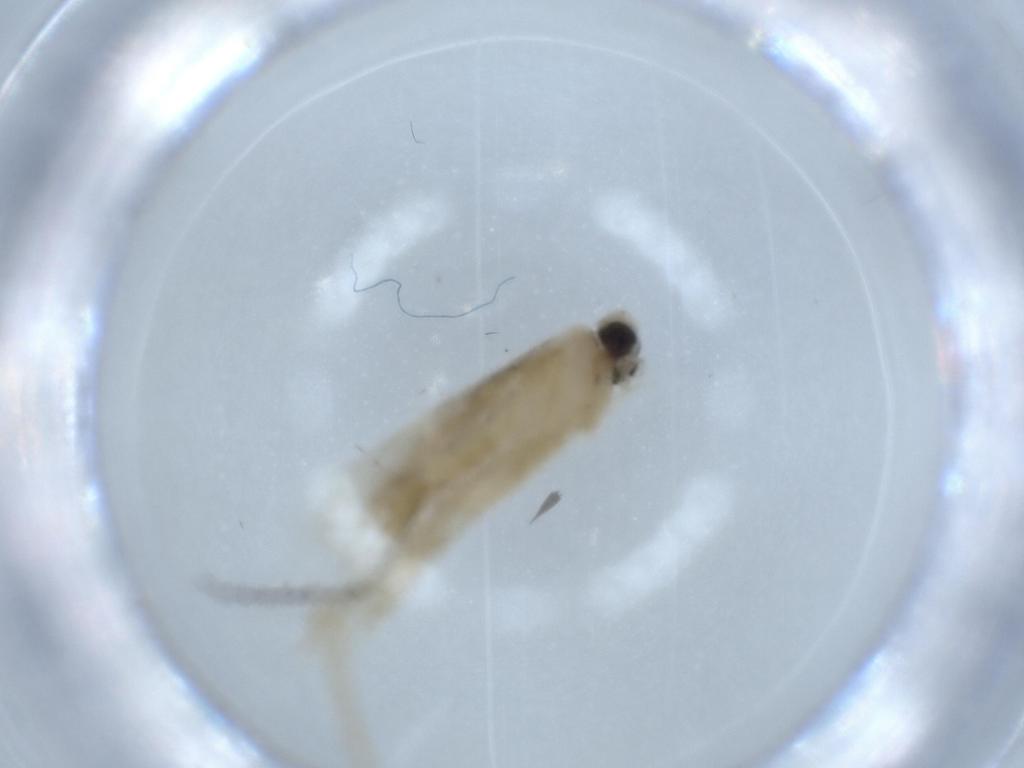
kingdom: Animalia
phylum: Arthropoda
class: Insecta
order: Lepidoptera
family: Tineidae
